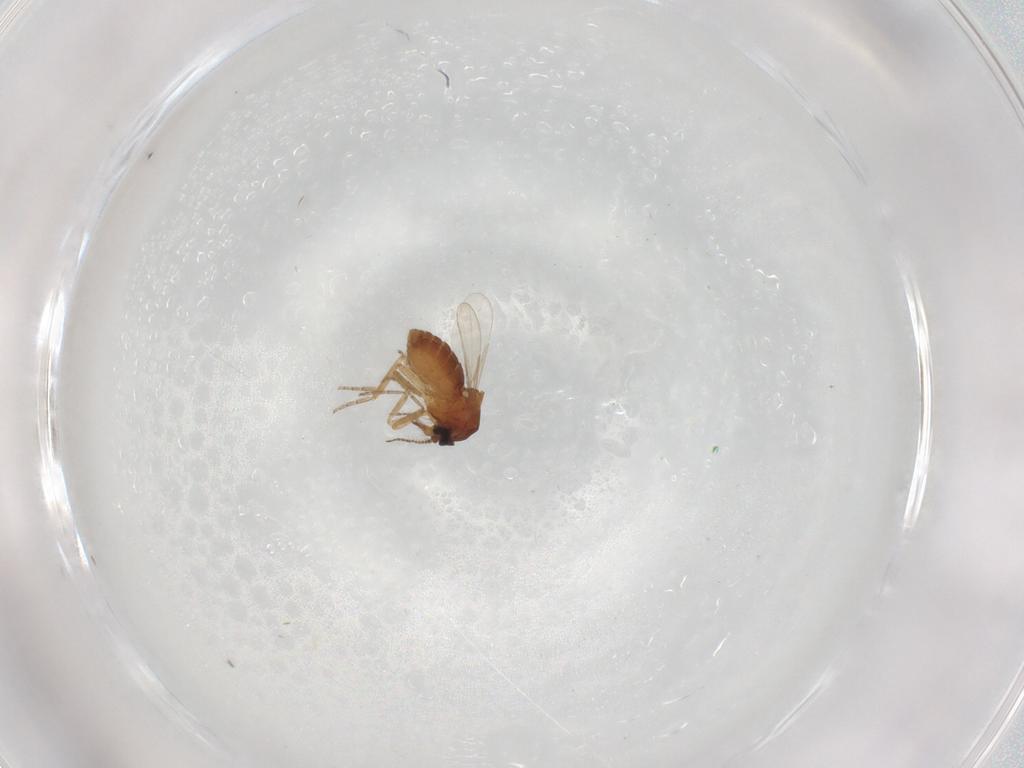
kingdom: Animalia
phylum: Arthropoda
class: Insecta
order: Diptera
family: Ceratopogonidae
